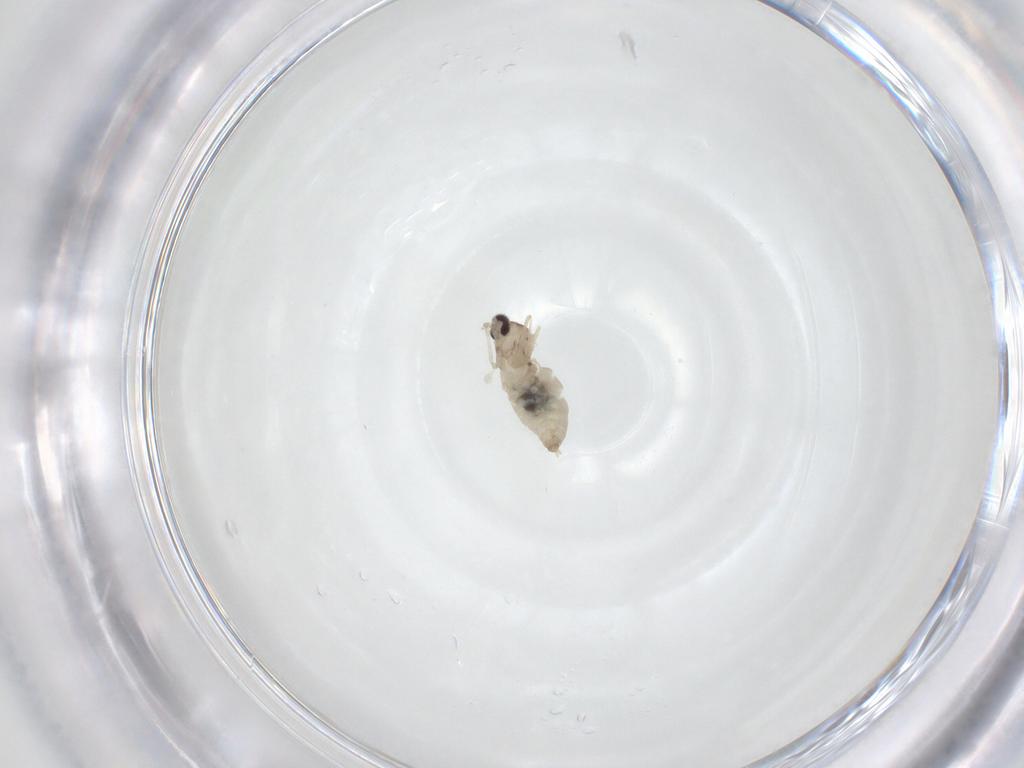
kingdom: Animalia
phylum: Arthropoda
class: Insecta
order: Diptera
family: Cecidomyiidae
